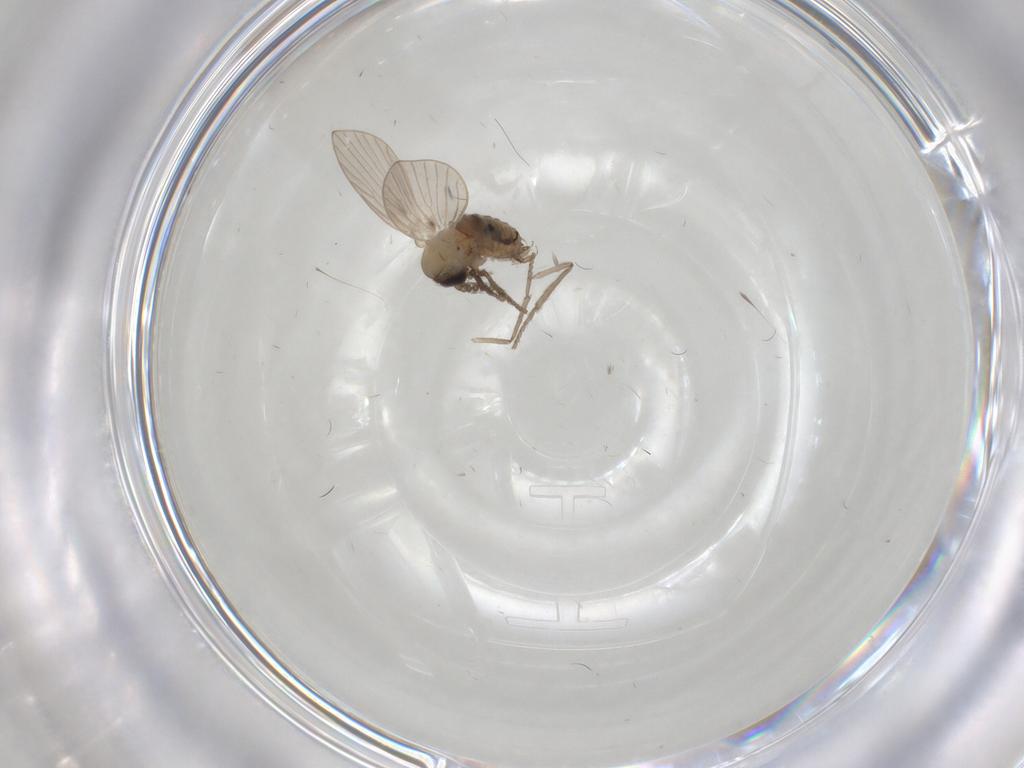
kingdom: Animalia
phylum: Arthropoda
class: Insecta
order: Diptera
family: Psychodidae
